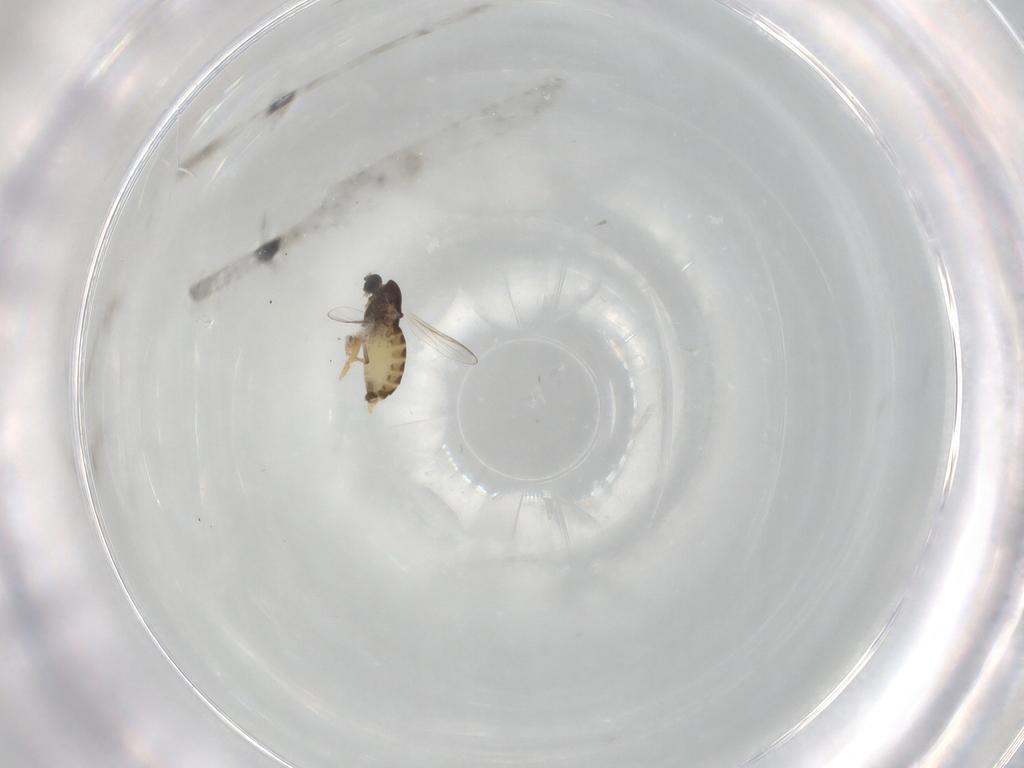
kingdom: Animalia
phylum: Arthropoda
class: Insecta
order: Diptera
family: Chironomidae
